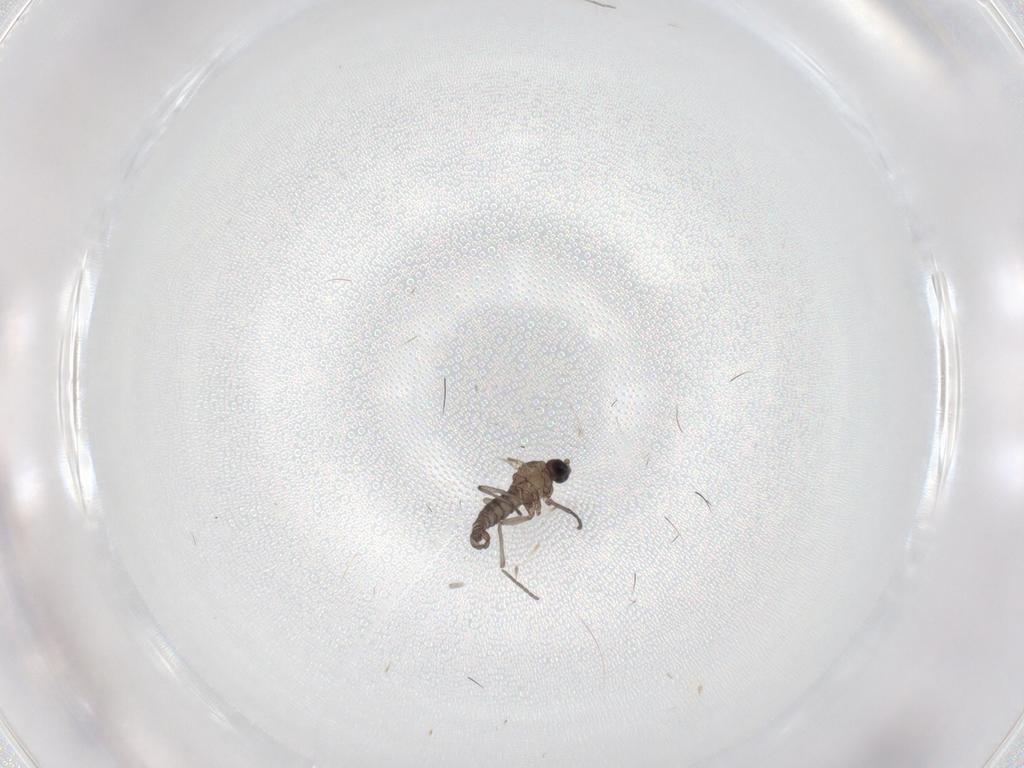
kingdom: Animalia
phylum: Arthropoda
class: Insecta
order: Diptera
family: Sciaridae
